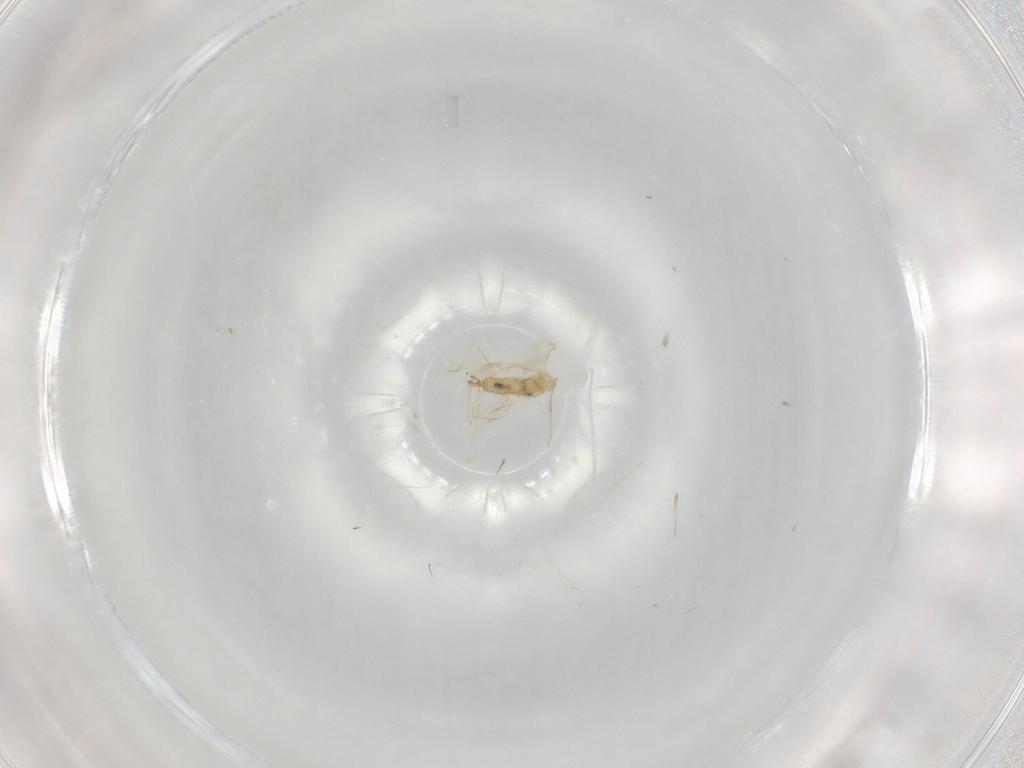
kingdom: Animalia
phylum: Arthropoda
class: Insecta
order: Diptera
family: Cecidomyiidae
